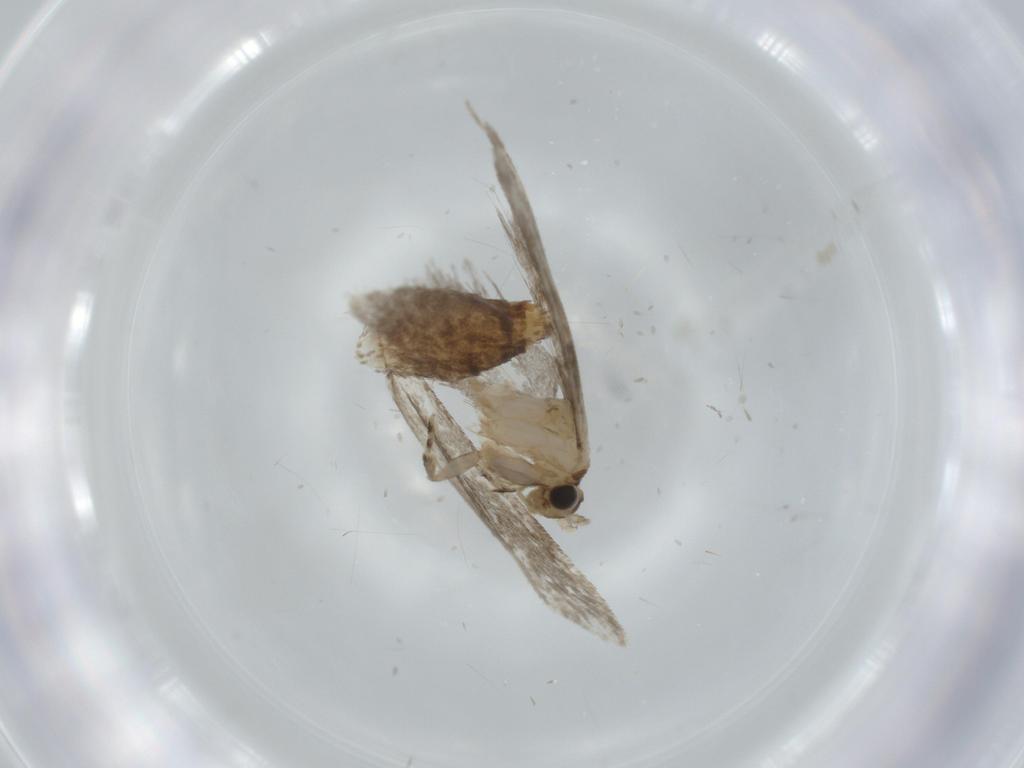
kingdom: Animalia
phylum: Arthropoda
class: Insecta
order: Lepidoptera
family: Tineidae
